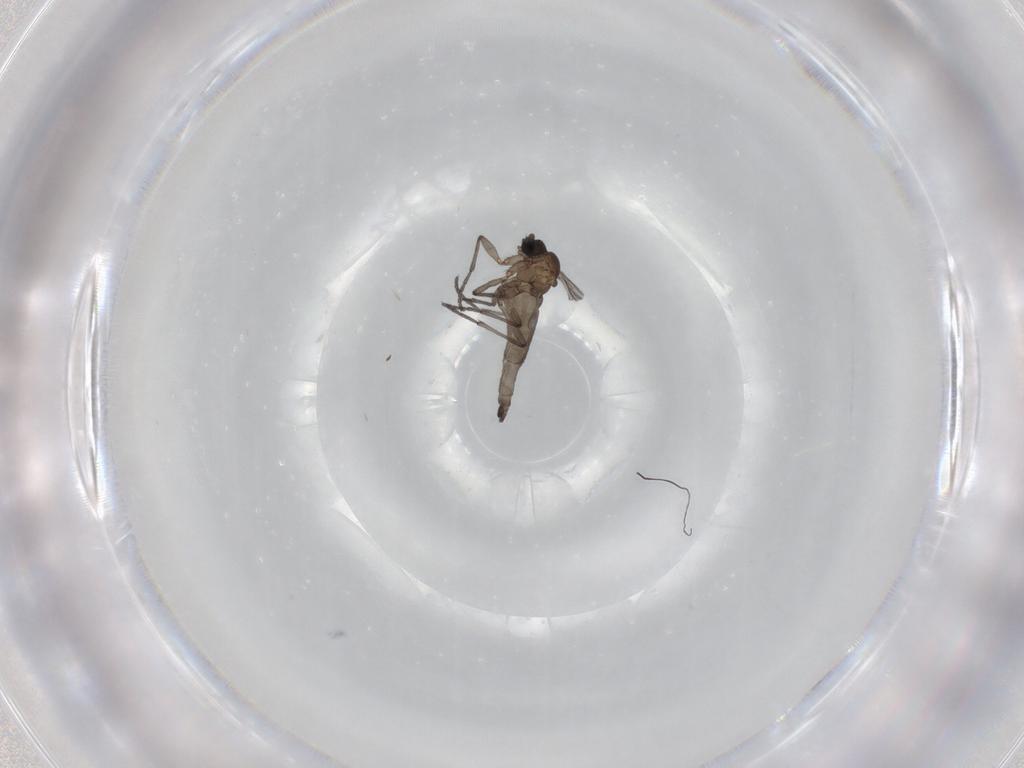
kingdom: Animalia
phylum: Arthropoda
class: Insecta
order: Diptera
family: Sciaridae
